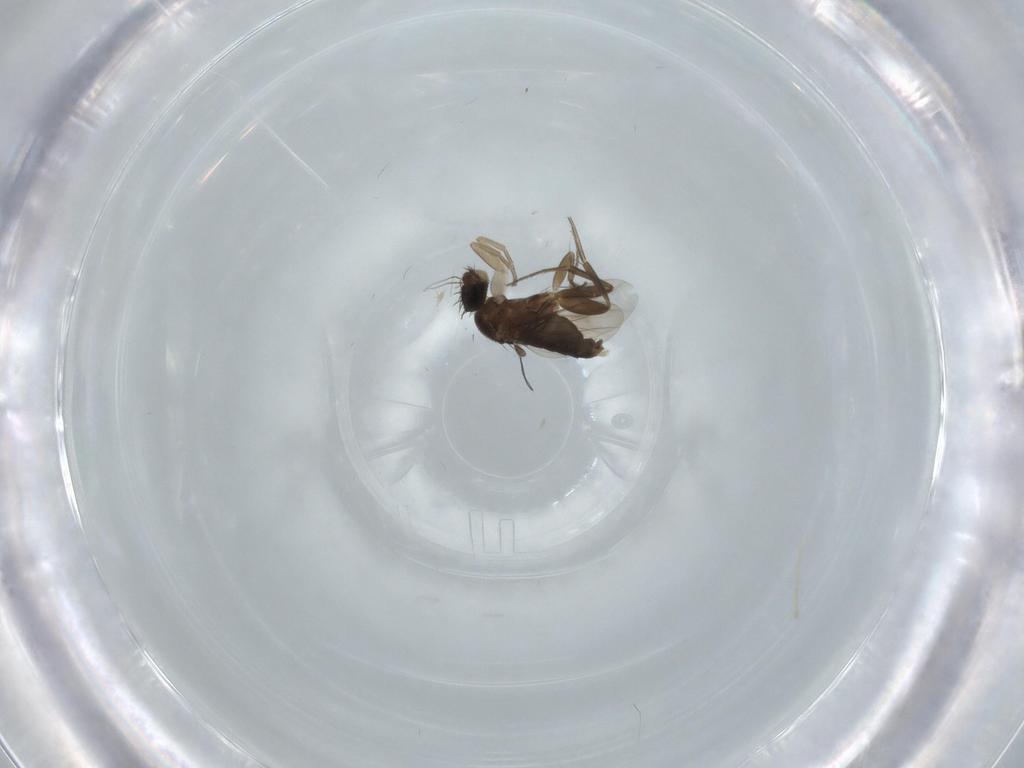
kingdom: Animalia
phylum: Arthropoda
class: Insecta
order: Diptera
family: Phoridae
